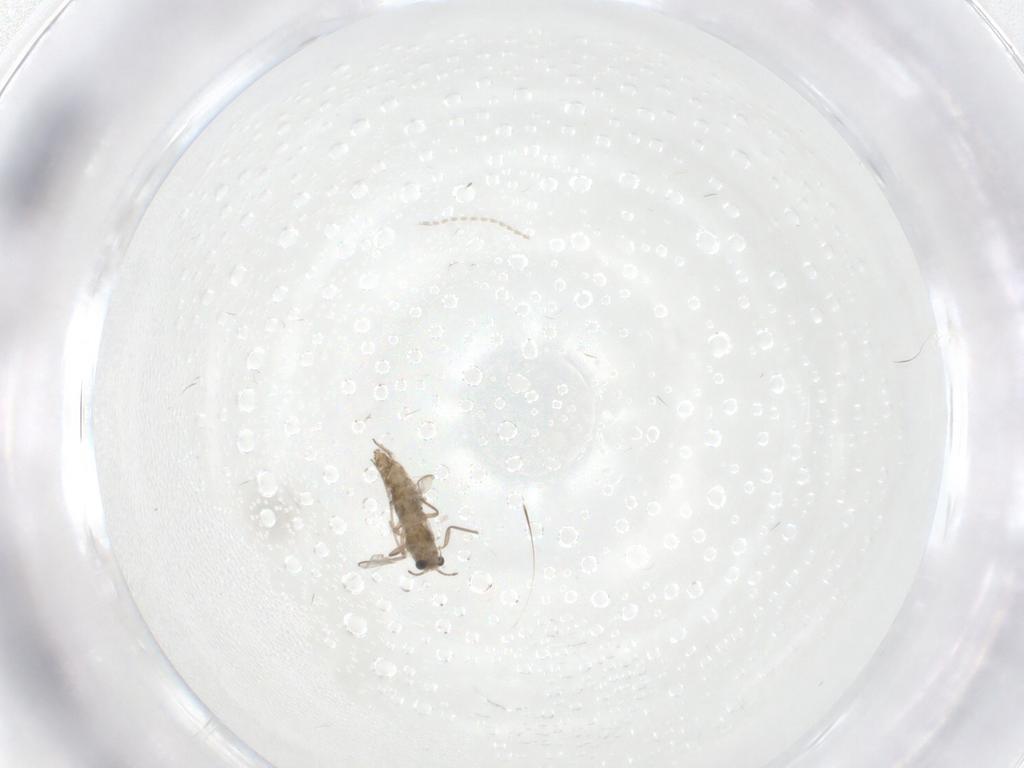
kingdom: Animalia
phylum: Arthropoda
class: Insecta
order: Diptera
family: Chironomidae
